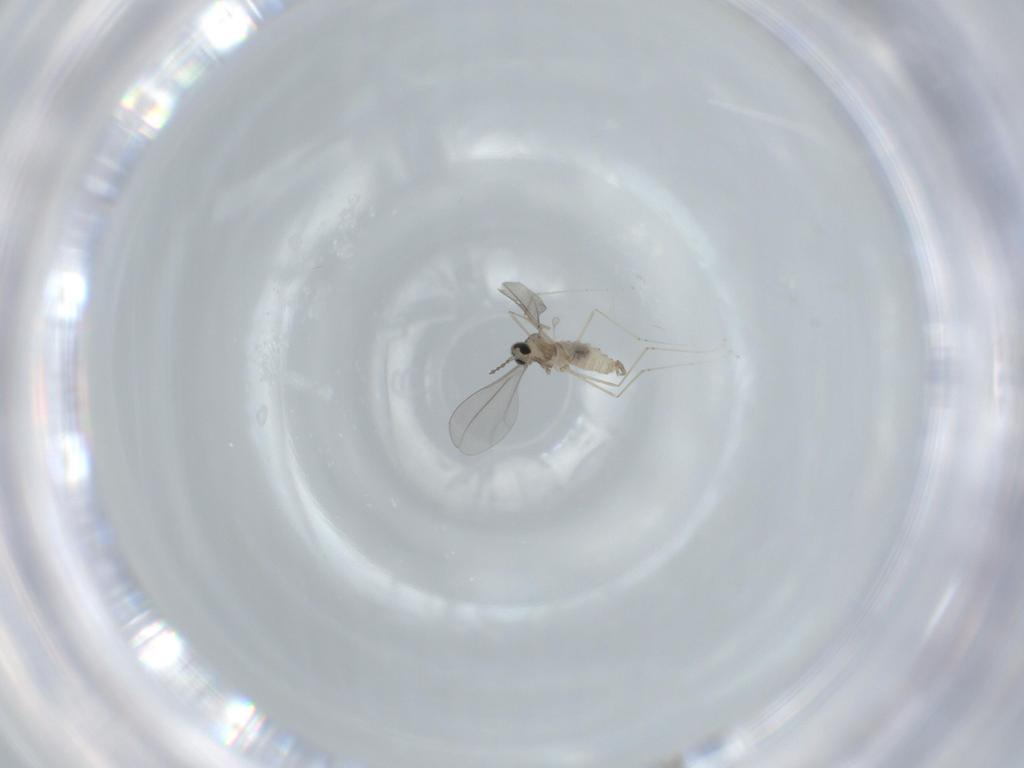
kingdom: Animalia
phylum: Arthropoda
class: Insecta
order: Diptera
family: Cecidomyiidae
